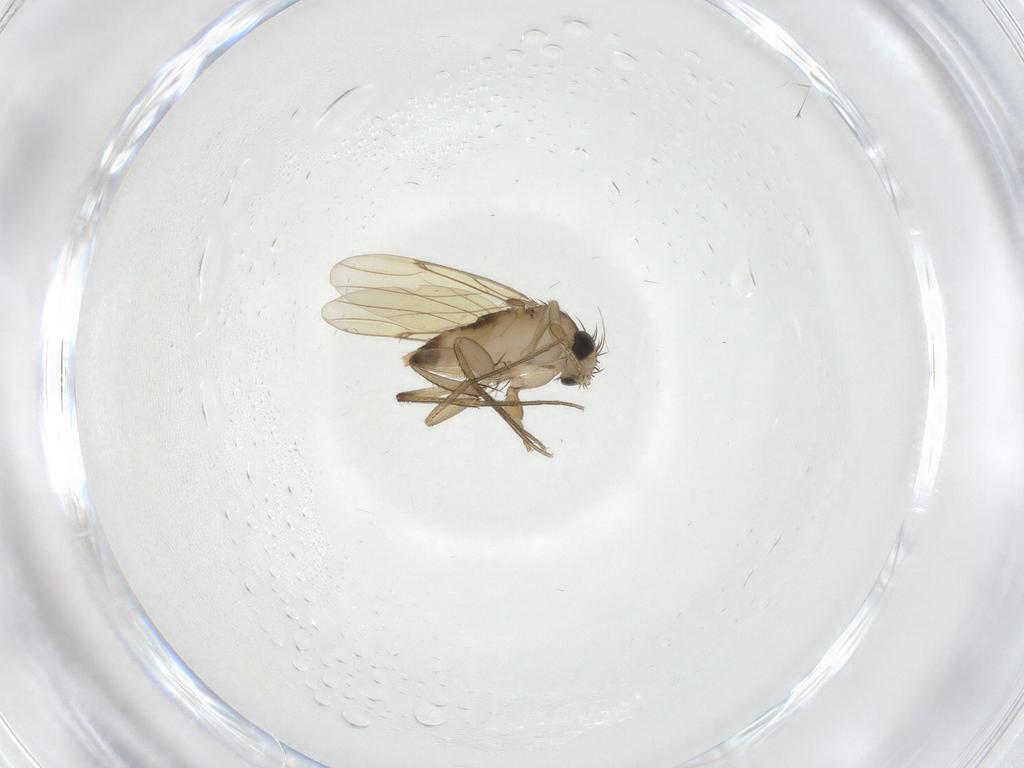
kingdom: Animalia
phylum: Arthropoda
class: Insecta
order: Diptera
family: Phoridae
